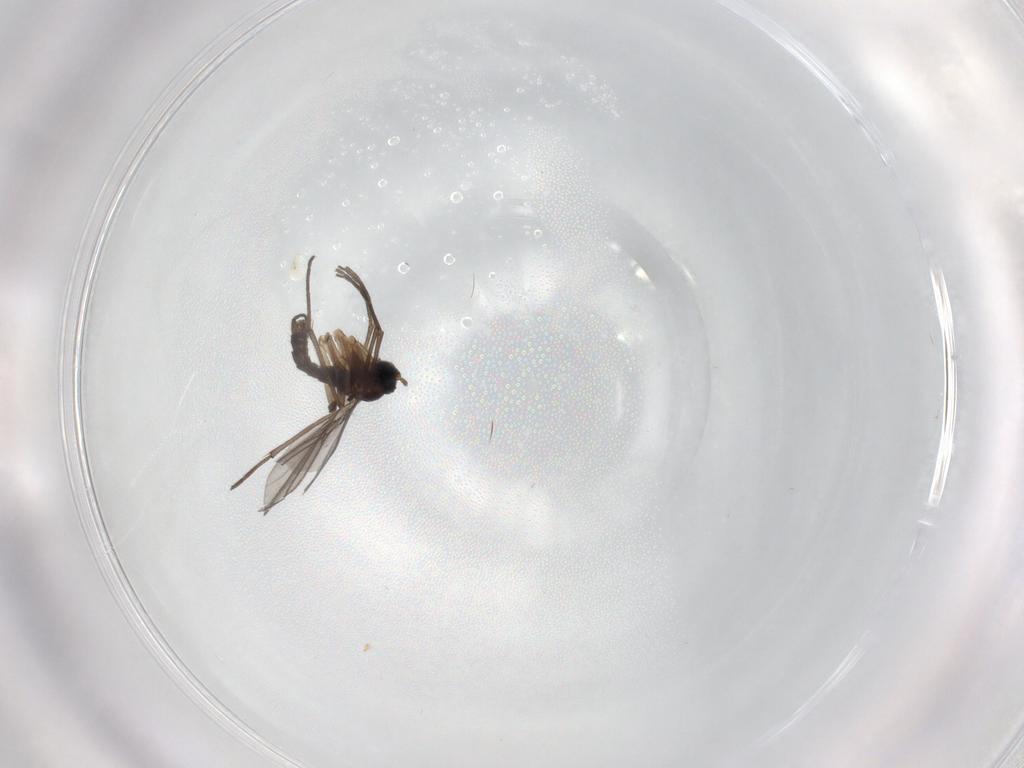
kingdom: Animalia
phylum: Arthropoda
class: Insecta
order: Diptera
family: Sciaridae
